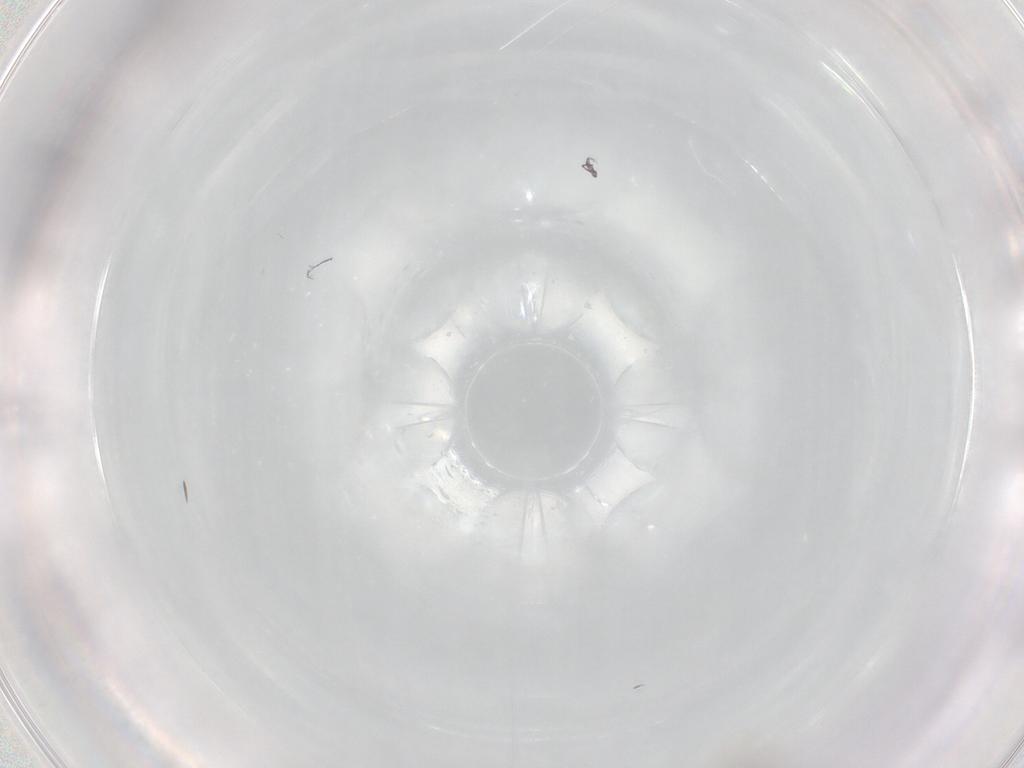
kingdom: Animalia
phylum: Arthropoda
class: Insecta
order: Hymenoptera
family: Mymaridae
